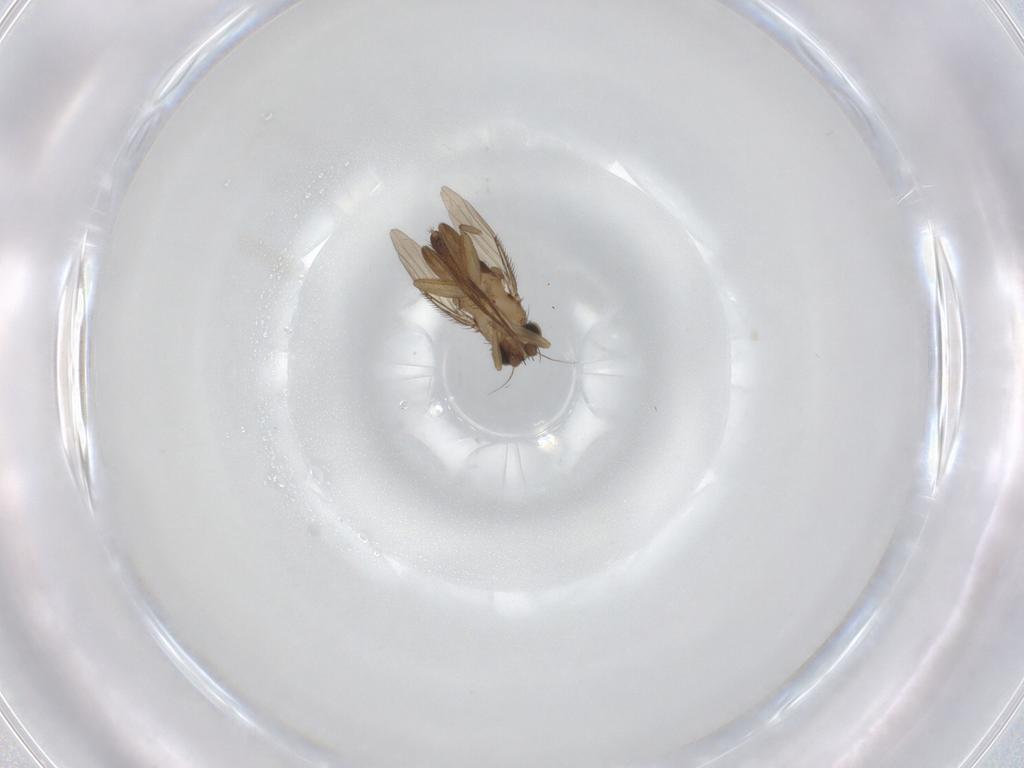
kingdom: Animalia
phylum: Arthropoda
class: Insecta
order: Diptera
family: Phoridae
